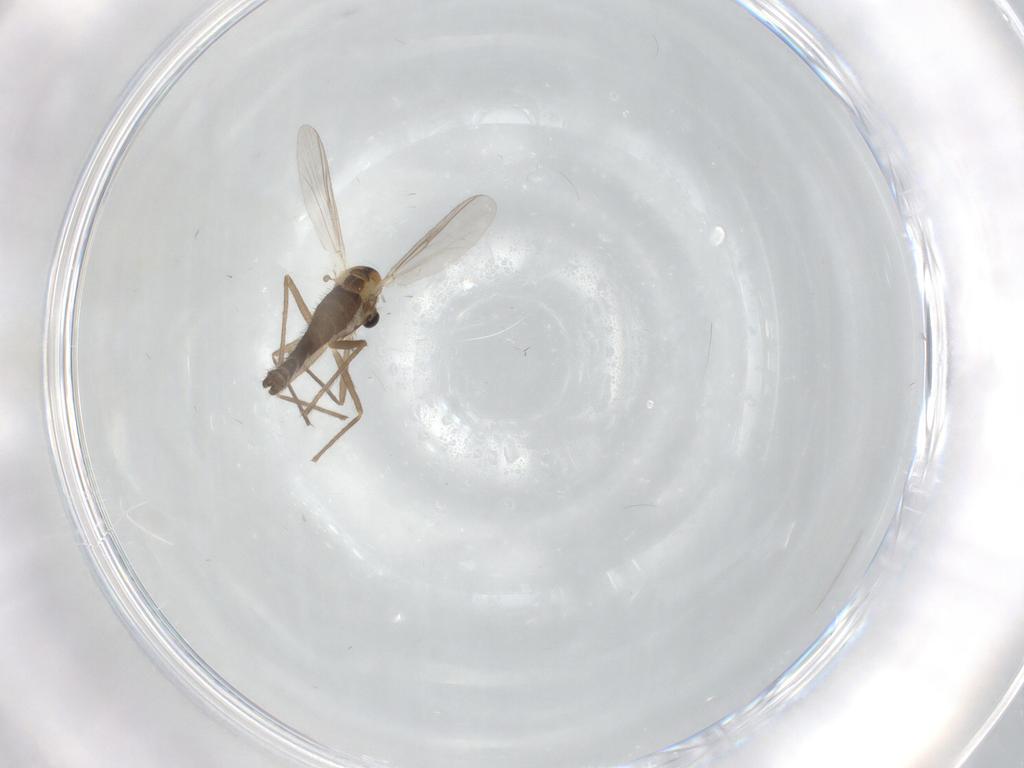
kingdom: Animalia
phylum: Arthropoda
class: Insecta
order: Diptera
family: Chironomidae
